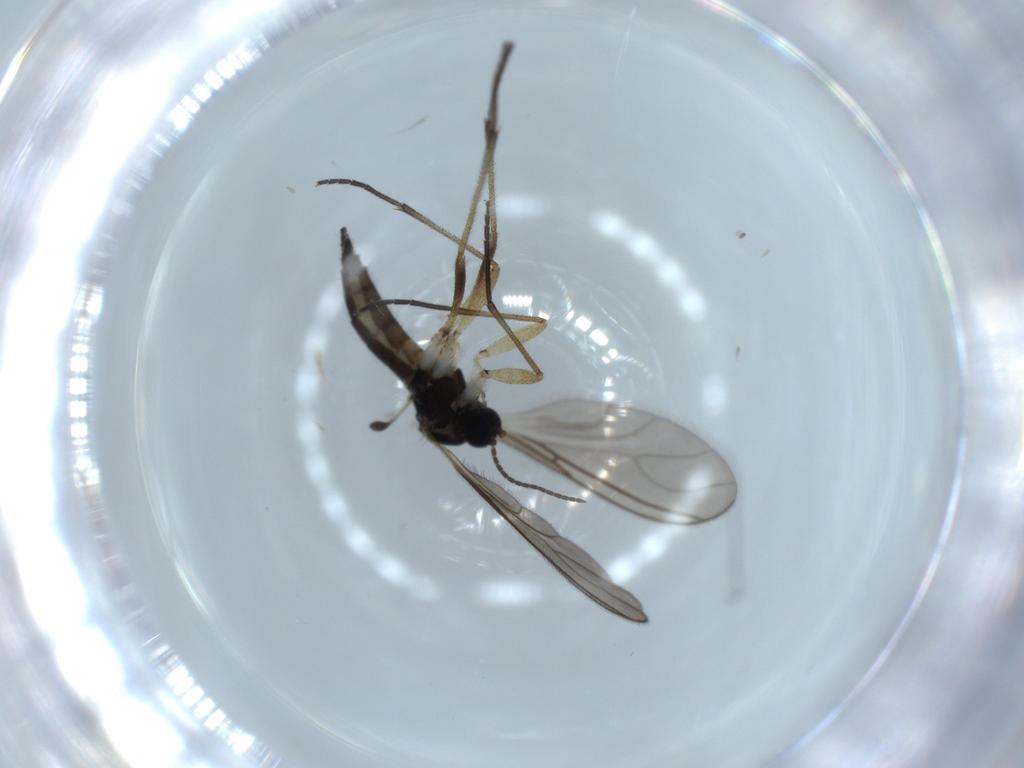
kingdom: Animalia
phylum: Arthropoda
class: Insecta
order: Diptera
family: Sciaridae
